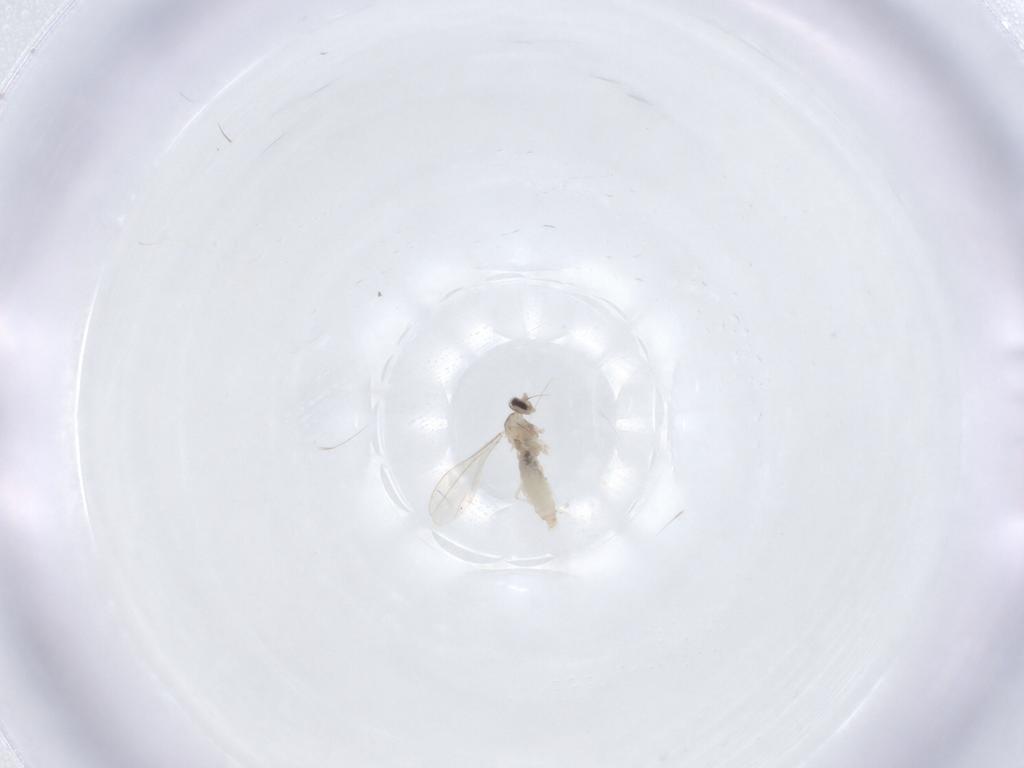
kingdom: Animalia
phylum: Arthropoda
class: Insecta
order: Diptera
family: Cecidomyiidae
